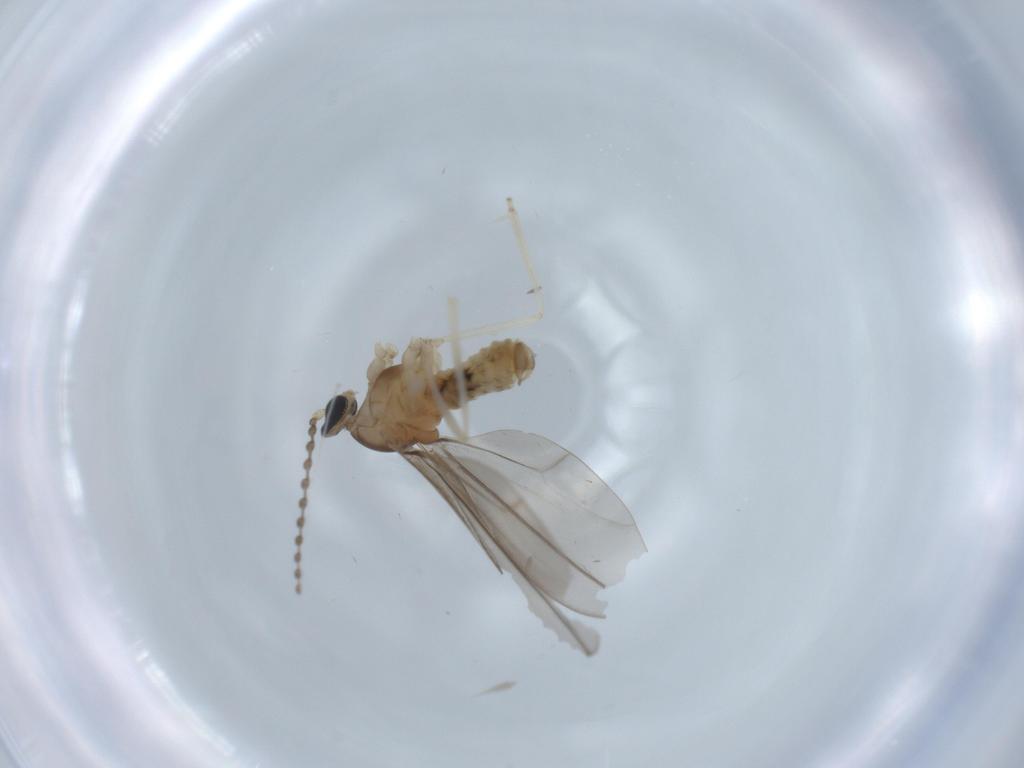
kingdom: Animalia
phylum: Arthropoda
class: Insecta
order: Diptera
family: Cecidomyiidae
